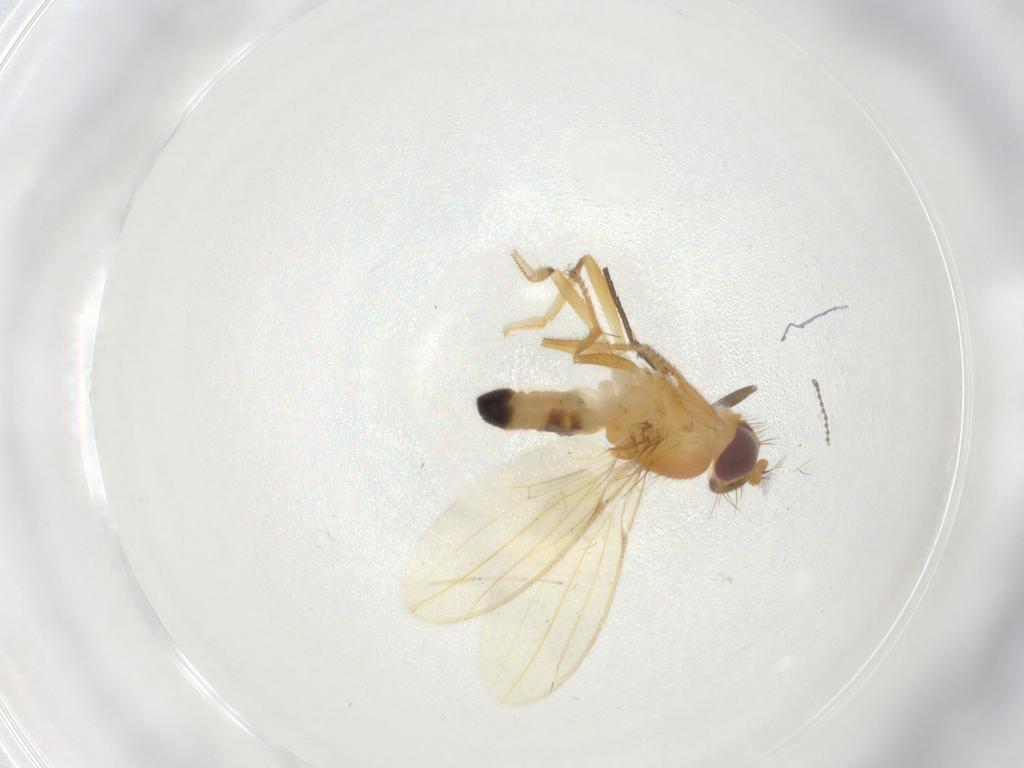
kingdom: Animalia
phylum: Arthropoda
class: Insecta
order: Diptera
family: Periscelididae
